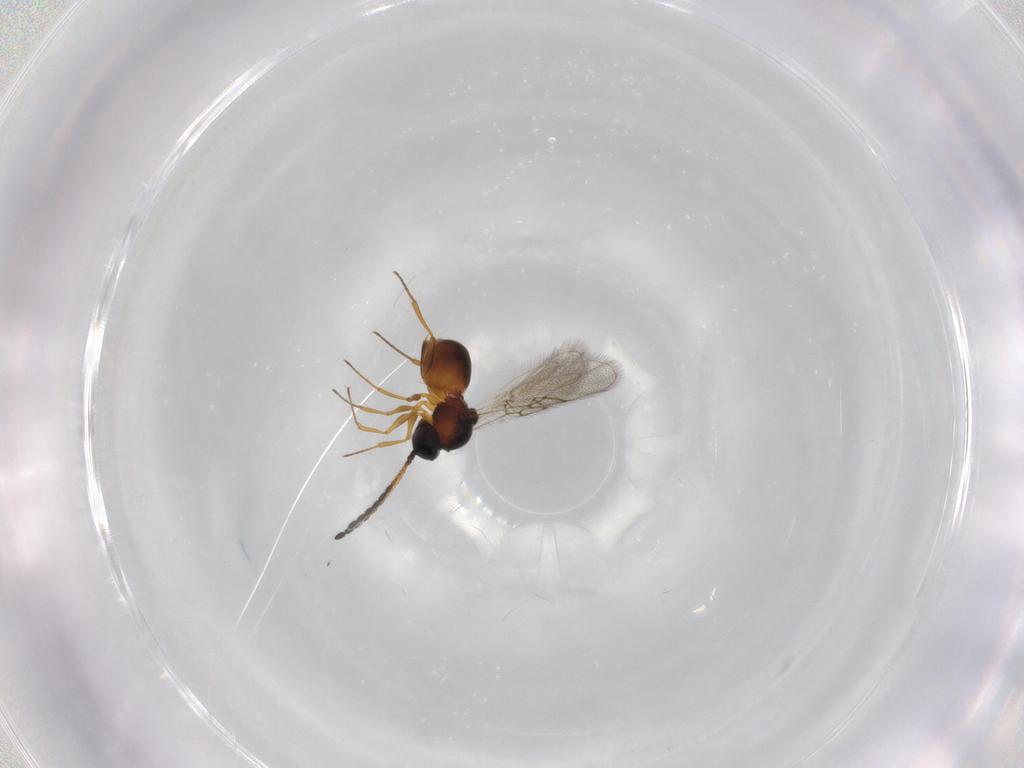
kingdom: Animalia
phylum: Arthropoda
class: Insecta
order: Hymenoptera
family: Figitidae
